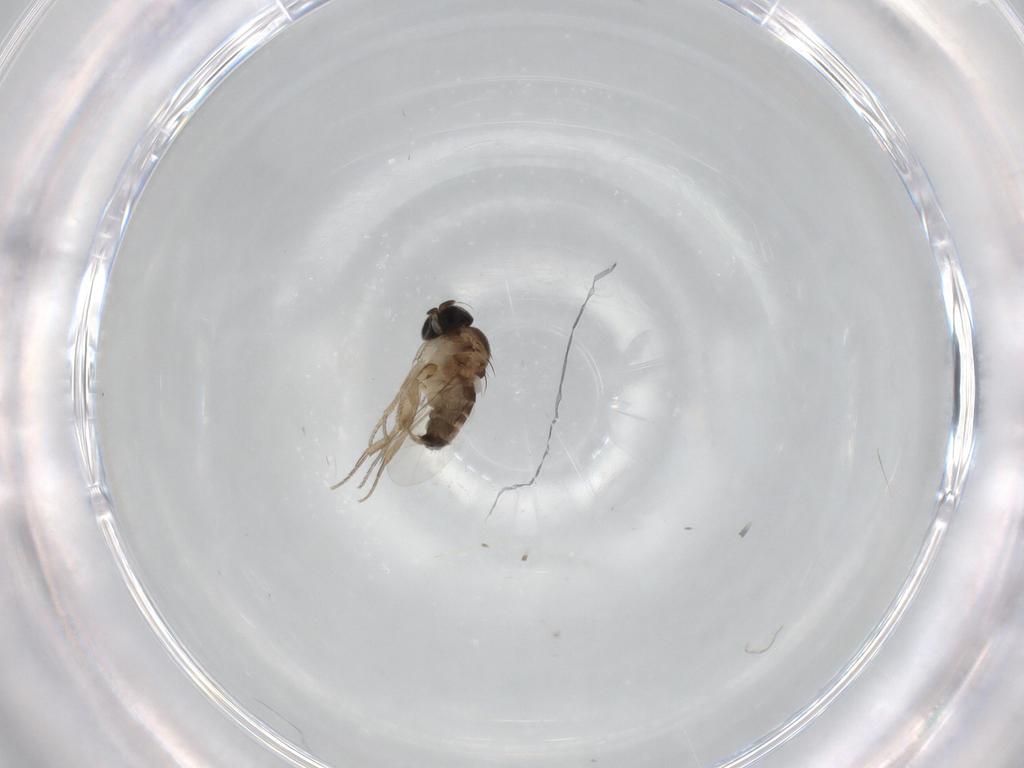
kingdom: Animalia
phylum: Arthropoda
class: Insecta
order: Diptera
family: Phoridae
